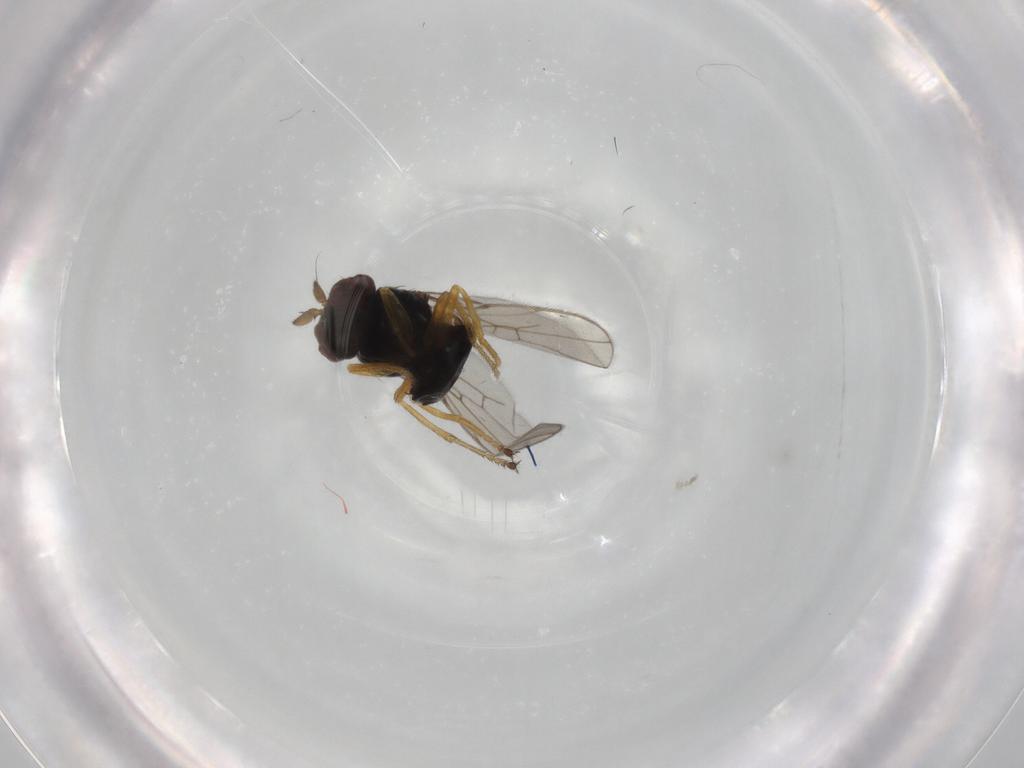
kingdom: Animalia
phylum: Arthropoda
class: Insecta
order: Diptera
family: Ephydridae
